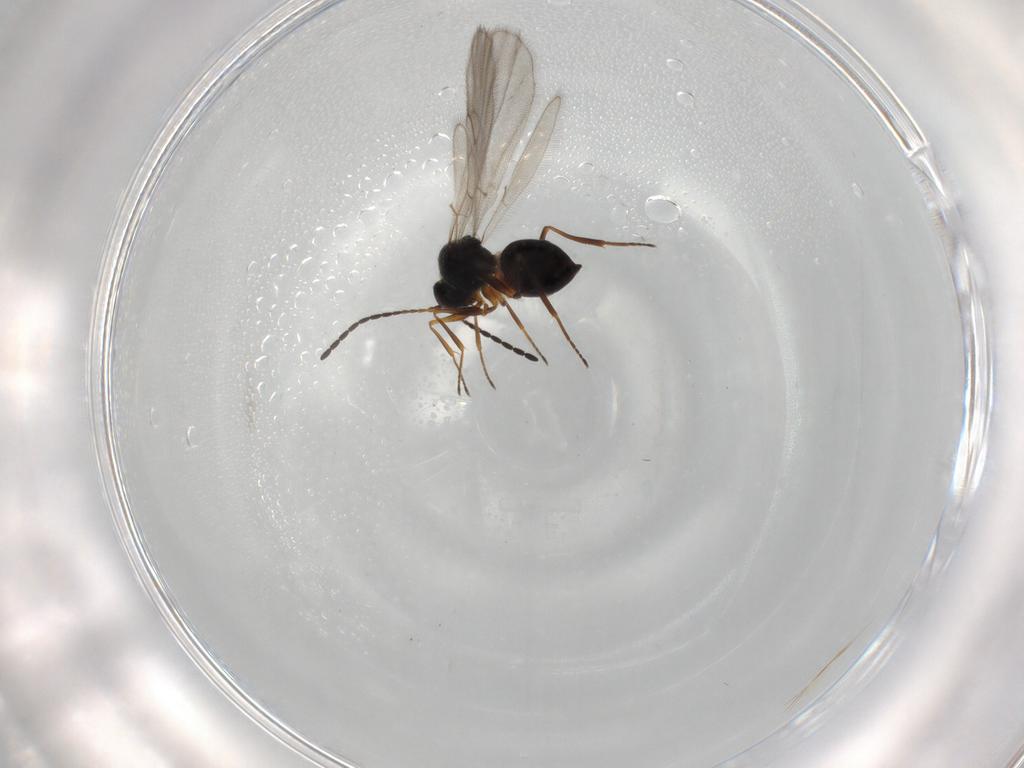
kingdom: Animalia
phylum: Arthropoda
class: Insecta
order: Hymenoptera
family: Figitidae
